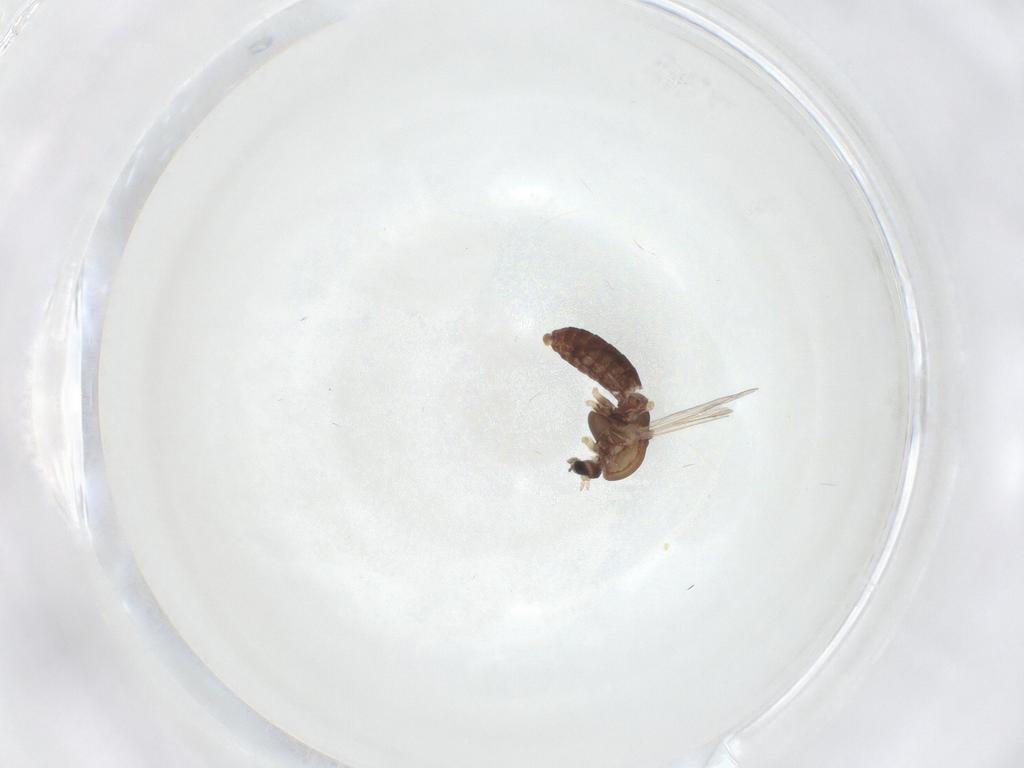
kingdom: Animalia
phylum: Arthropoda
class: Insecta
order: Diptera
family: Chironomidae
